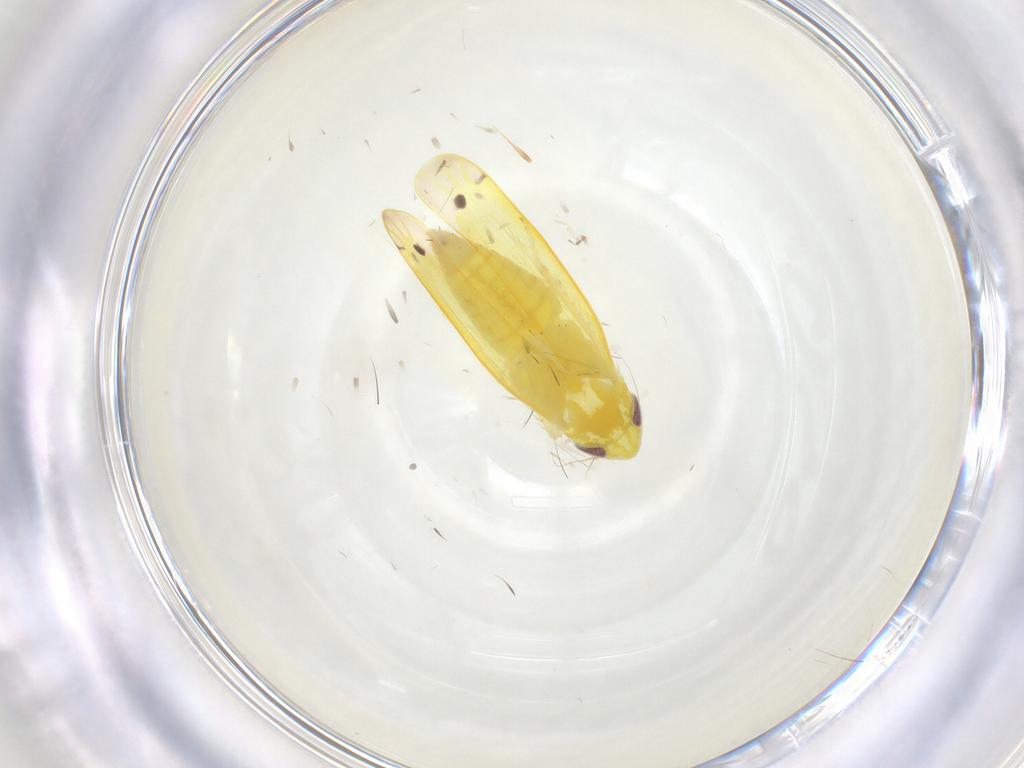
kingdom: Animalia
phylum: Arthropoda
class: Insecta
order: Hemiptera
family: Cicadellidae
